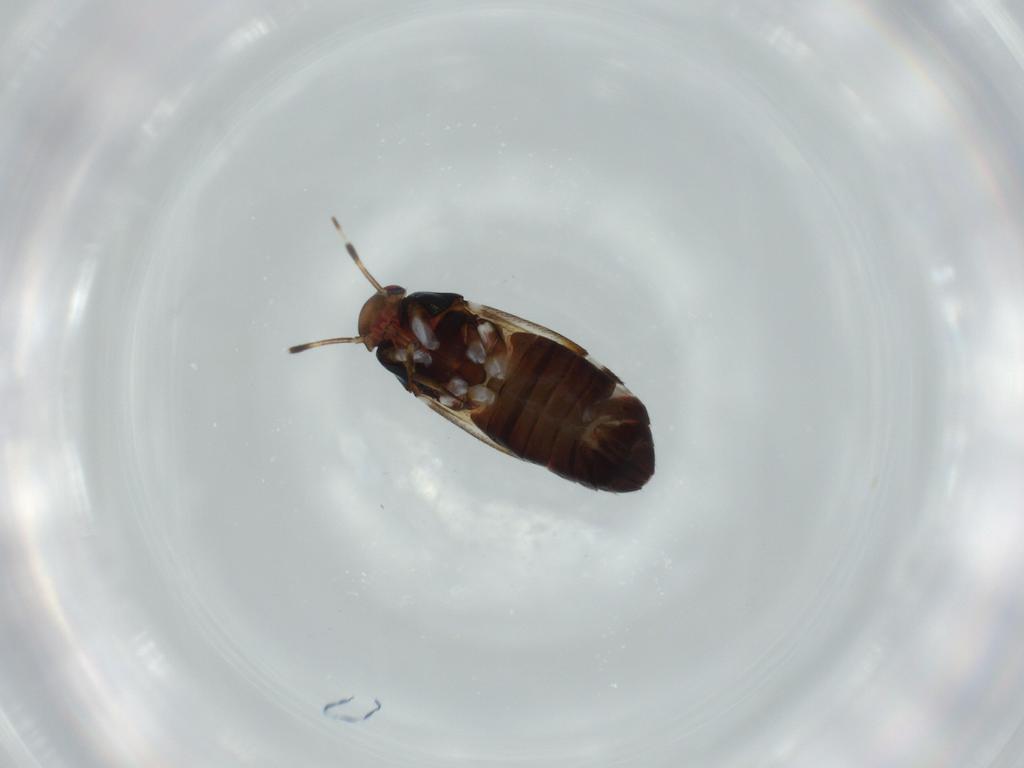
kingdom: Animalia
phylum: Arthropoda
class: Insecta
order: Hemiptera
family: Miridae
